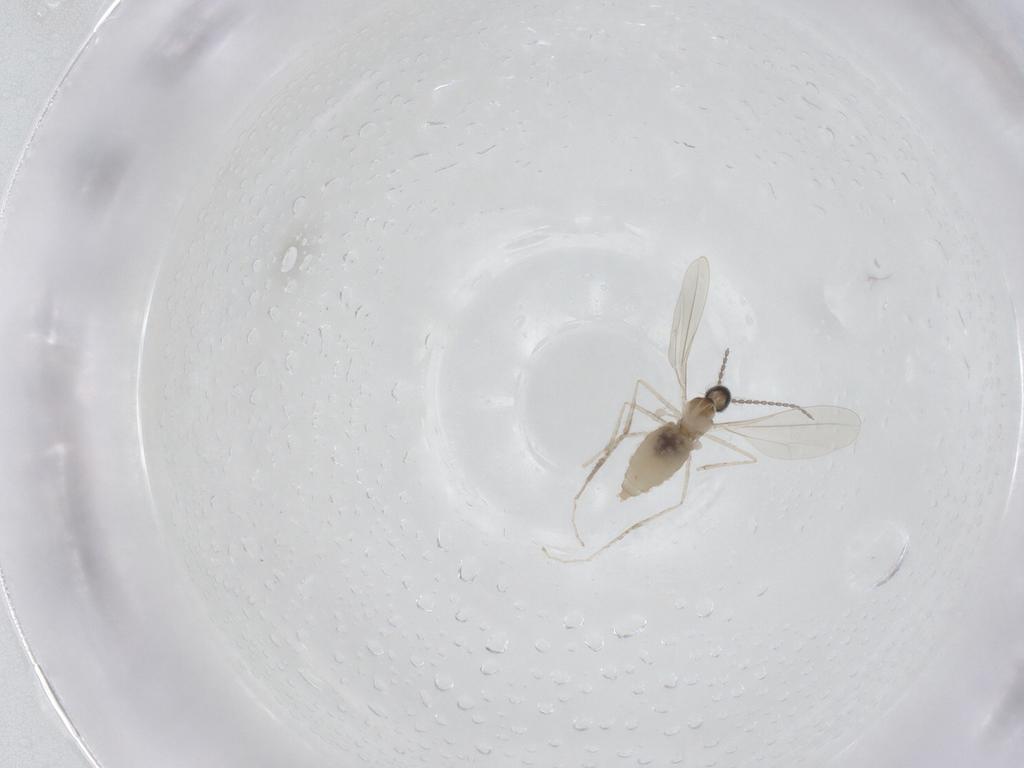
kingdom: Animalia
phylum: Arthropoda
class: Insecta
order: Diptera
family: Cecidomyiidae
